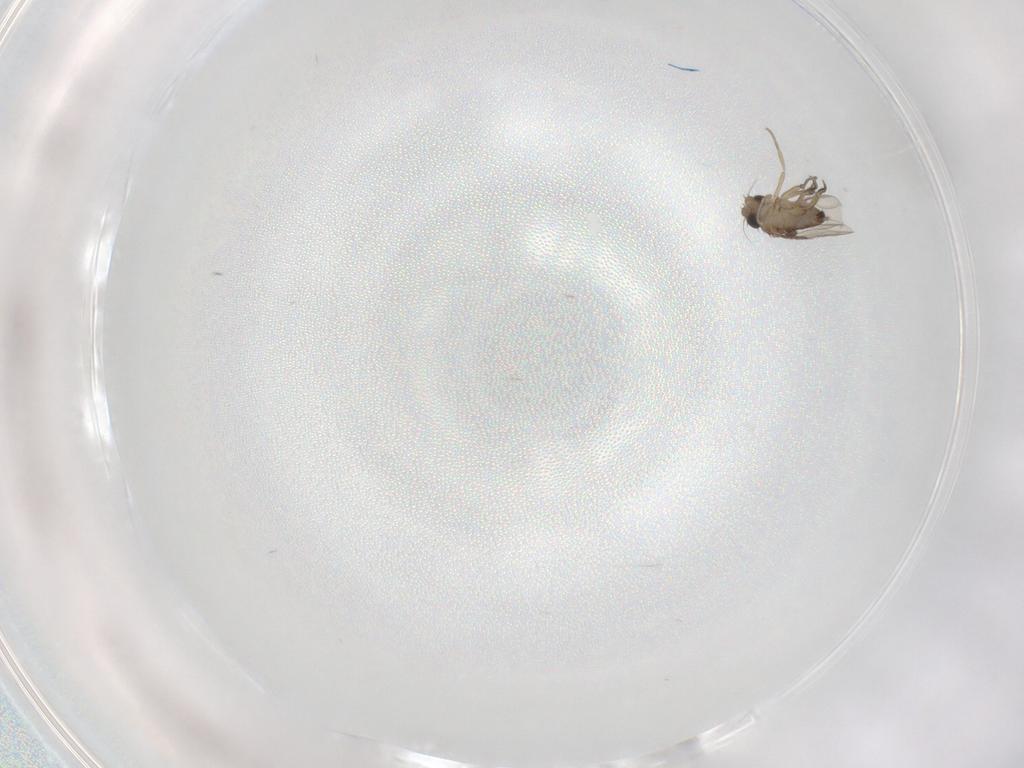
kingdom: Animalia
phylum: Arthropoda
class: Insecta
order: Diptera
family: Phoridae
